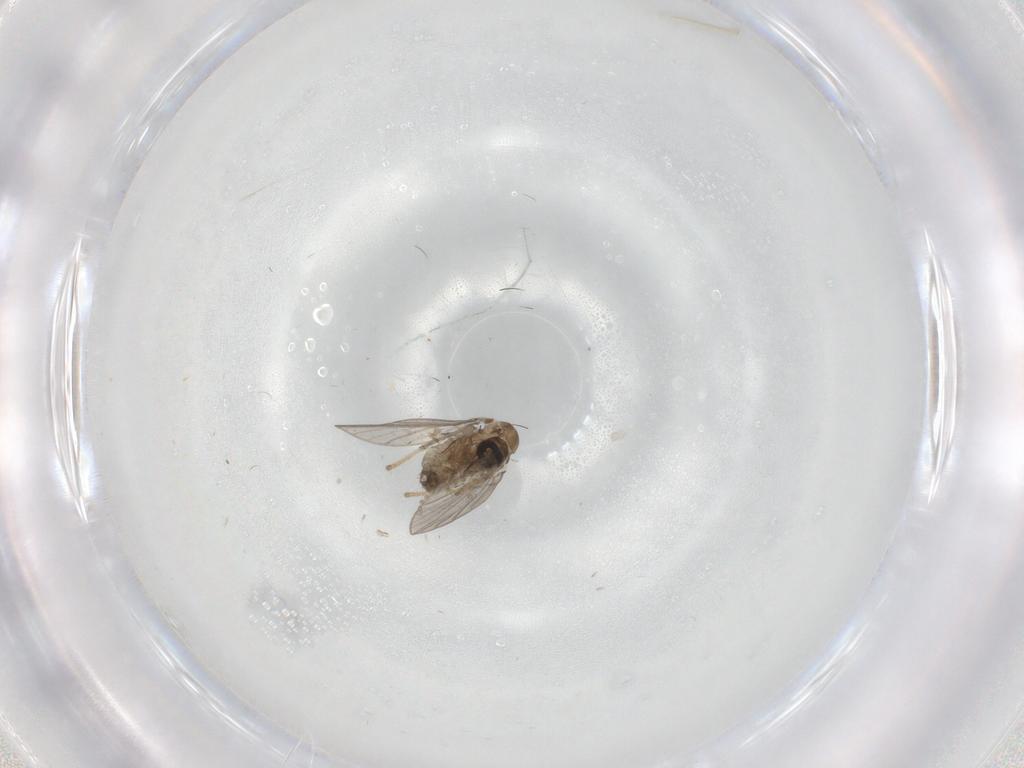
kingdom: Animalia
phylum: Arthropoda
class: Insecta
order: Diptera
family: Psychodidae
